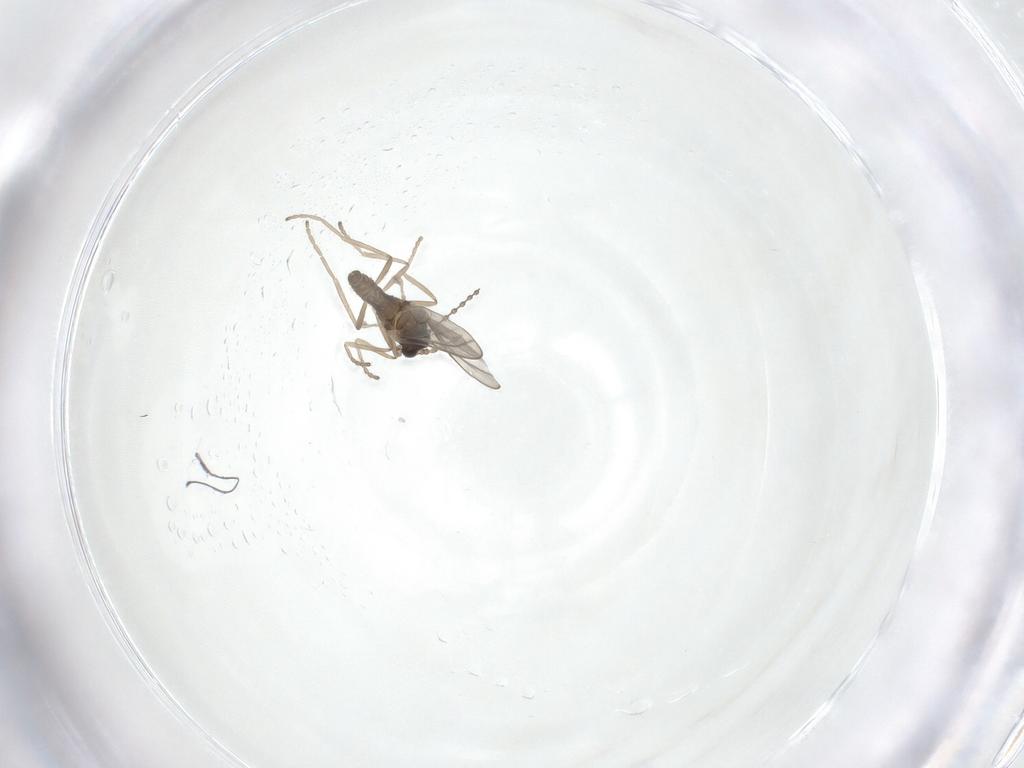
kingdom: Animalia
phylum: Arthropoda
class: Insecta
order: Diptera
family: Cecidomyiidae
